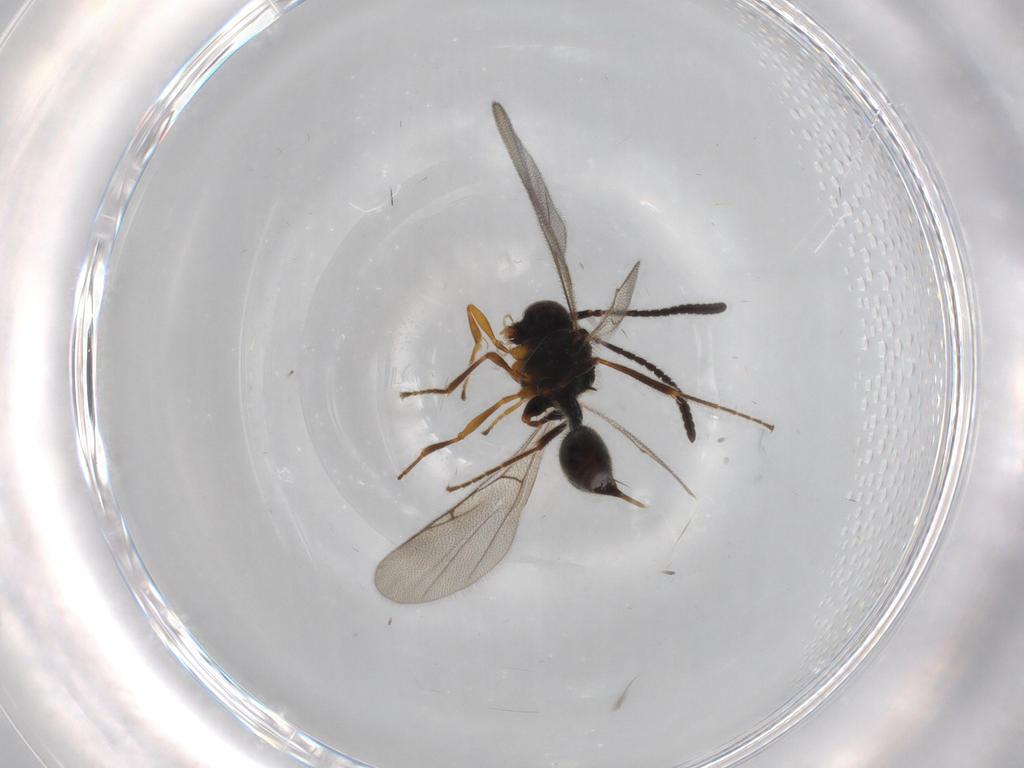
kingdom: Animalia
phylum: Arthropoda
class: Insecta
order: Hymenoptera
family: Diapriidae
